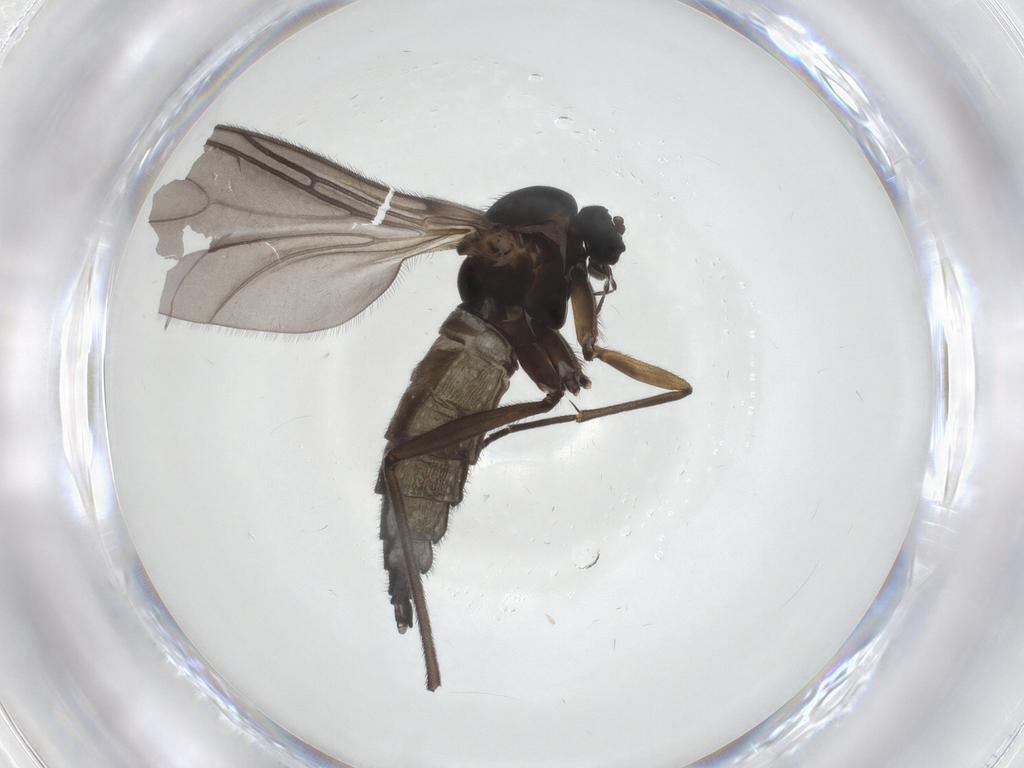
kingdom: Animalia
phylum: Arthropoda
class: Insecta
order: Diptera
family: Sciaridae
